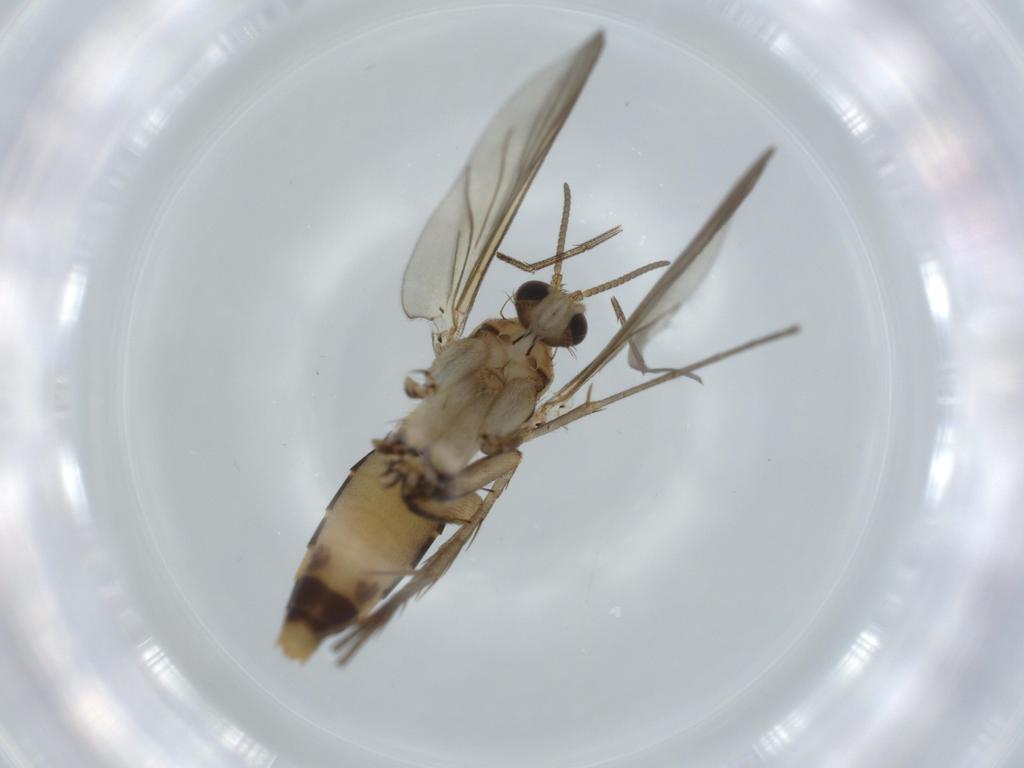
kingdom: Animalia
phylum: Arthropoda
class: Insecta
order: Diptera
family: Mycetophilidae
